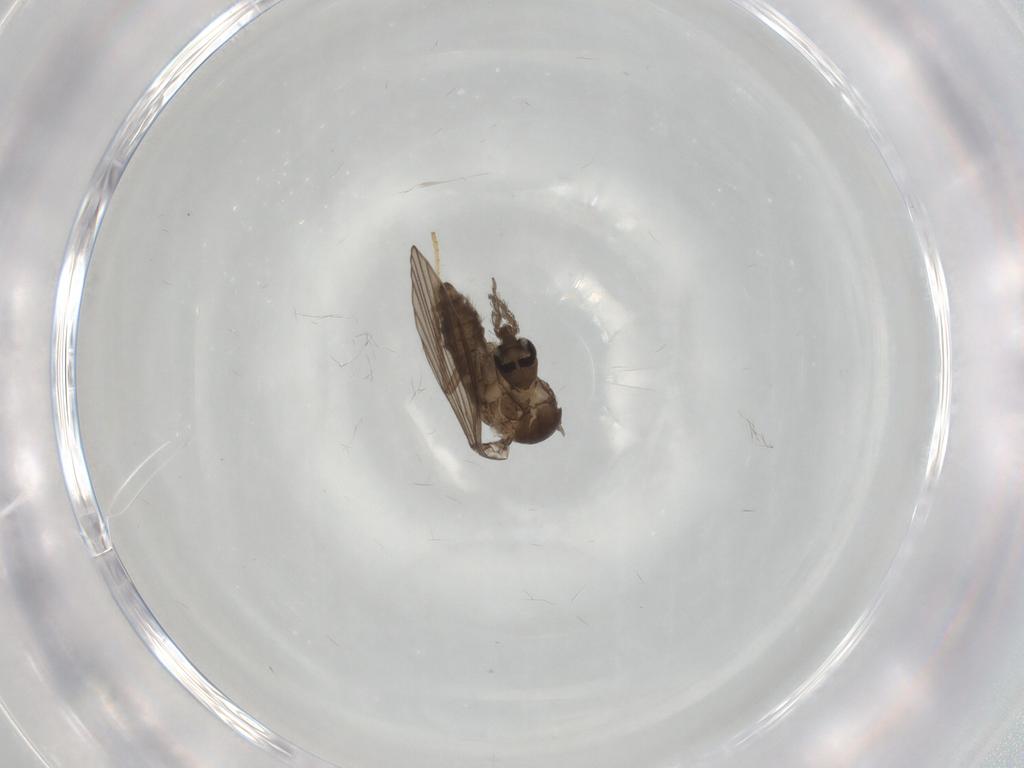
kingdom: Animalia
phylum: Arthropoda
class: Insecta
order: Diptera
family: Psychodidae
